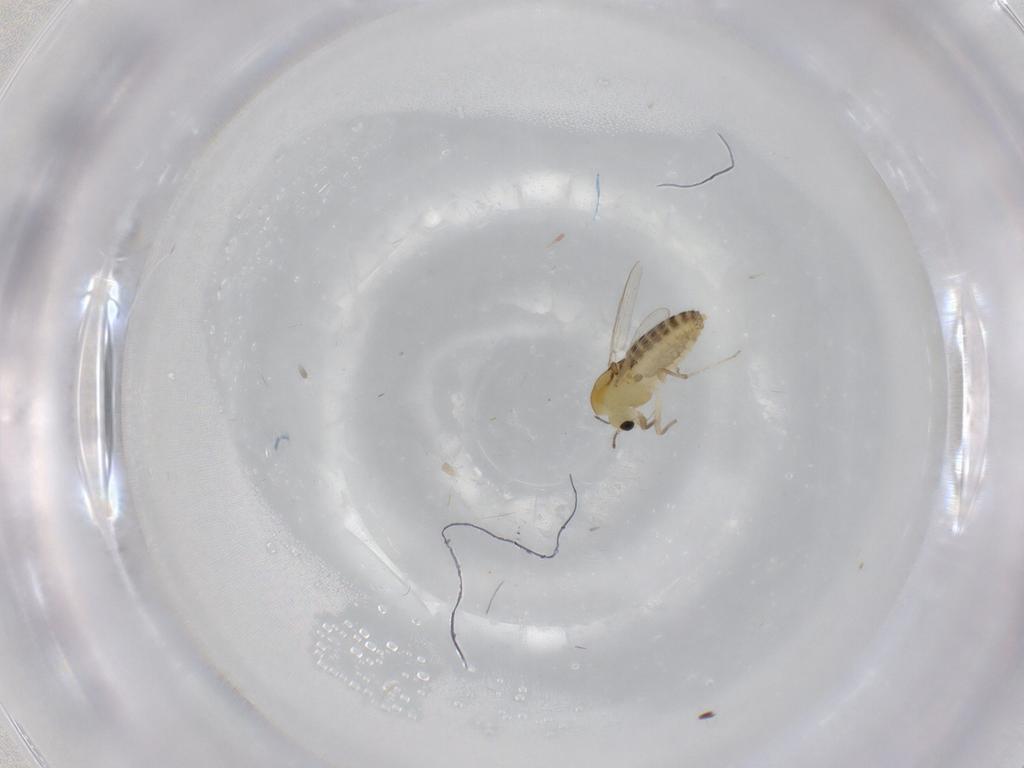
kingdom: Animalia
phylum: Arthropoda
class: Insecta
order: Diptera
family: Chironomidae
